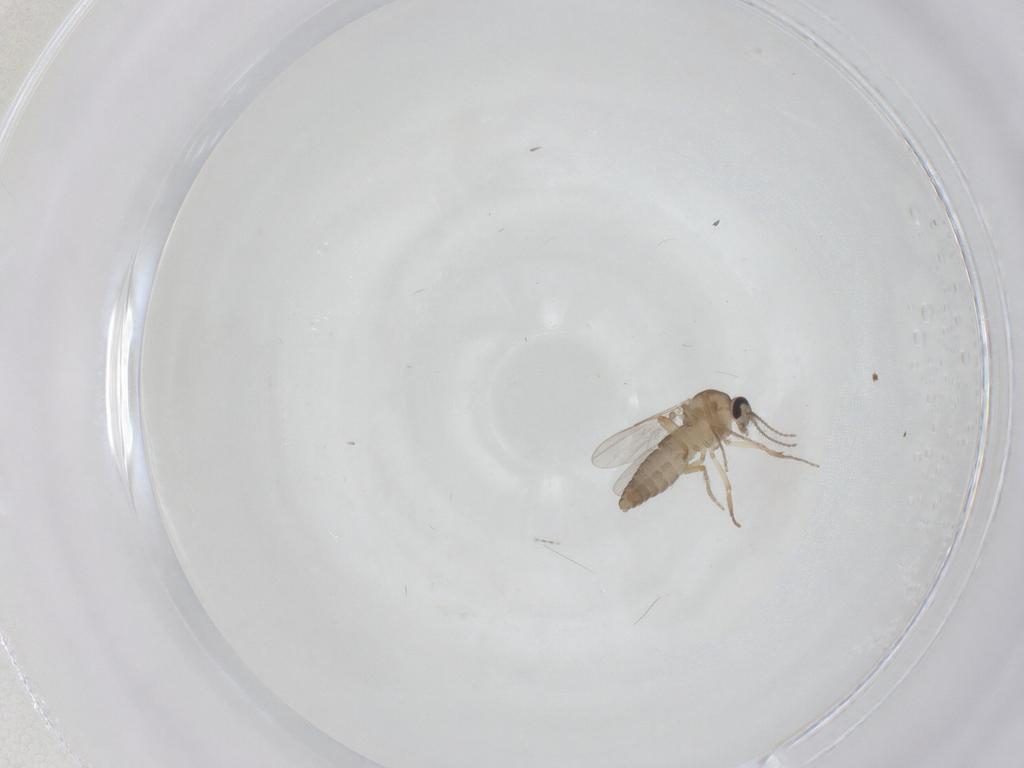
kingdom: Animalia
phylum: Arthropoda
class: Insecta
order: Diptera
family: Ceratopogonidae
